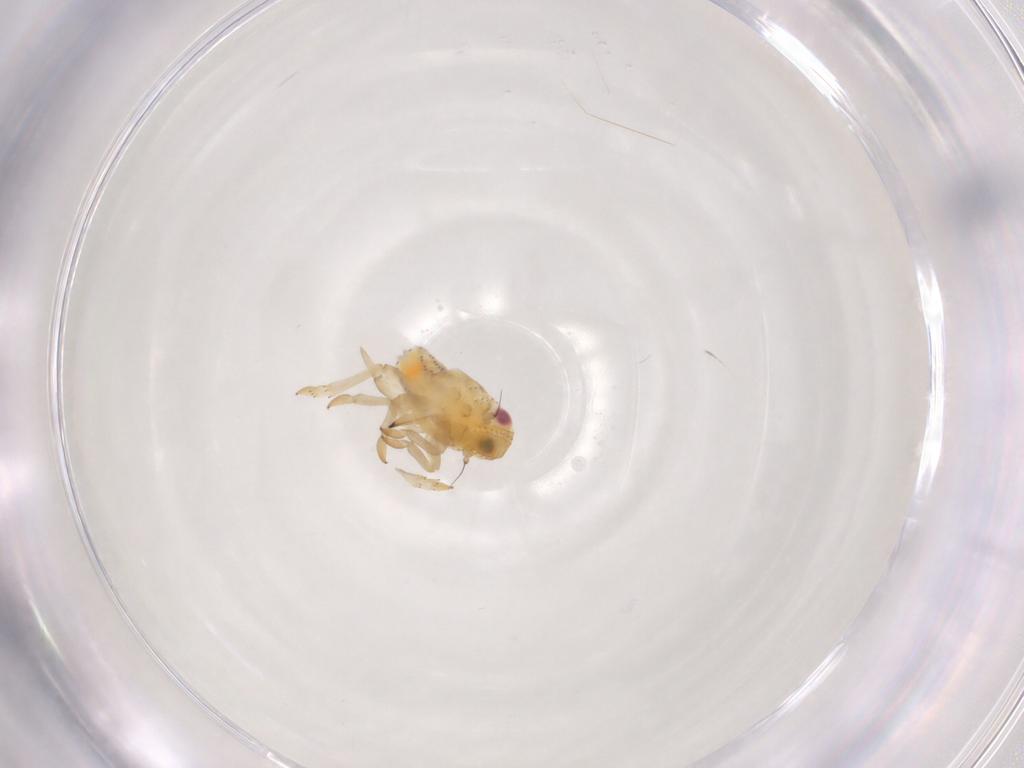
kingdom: Animalia
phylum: Arthropoda
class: Insecta
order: Hemiptera
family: Tropiduchidae
